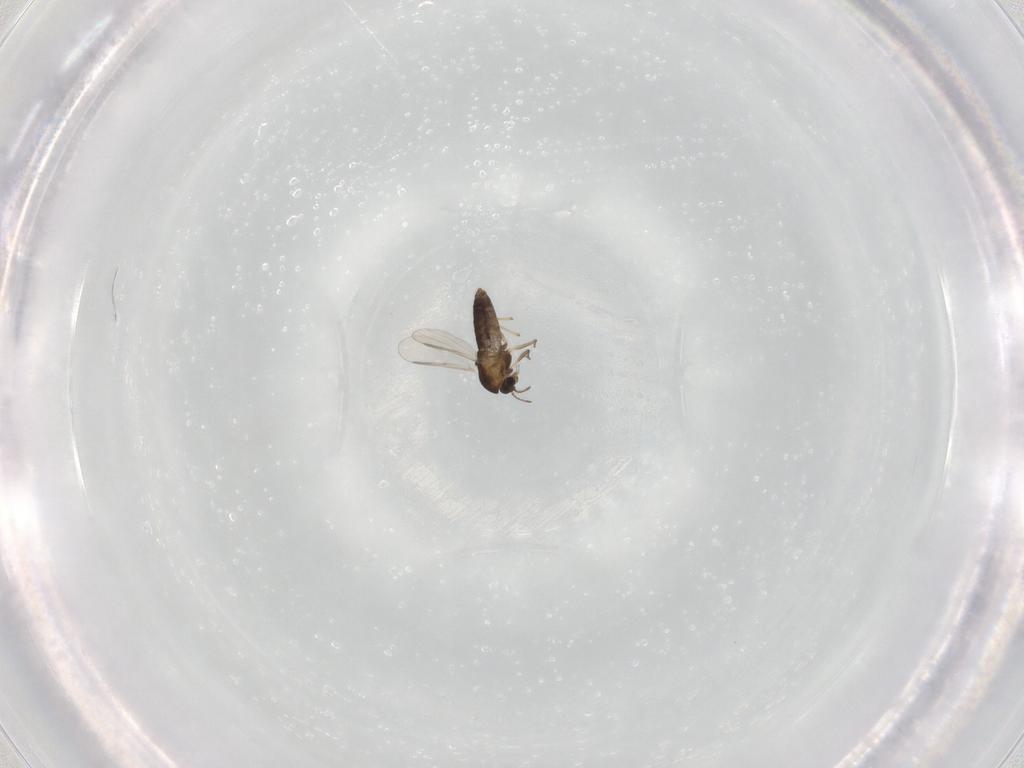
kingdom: Animalia
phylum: Arthropoda
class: Insecta
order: Diptera
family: Chironomidae
